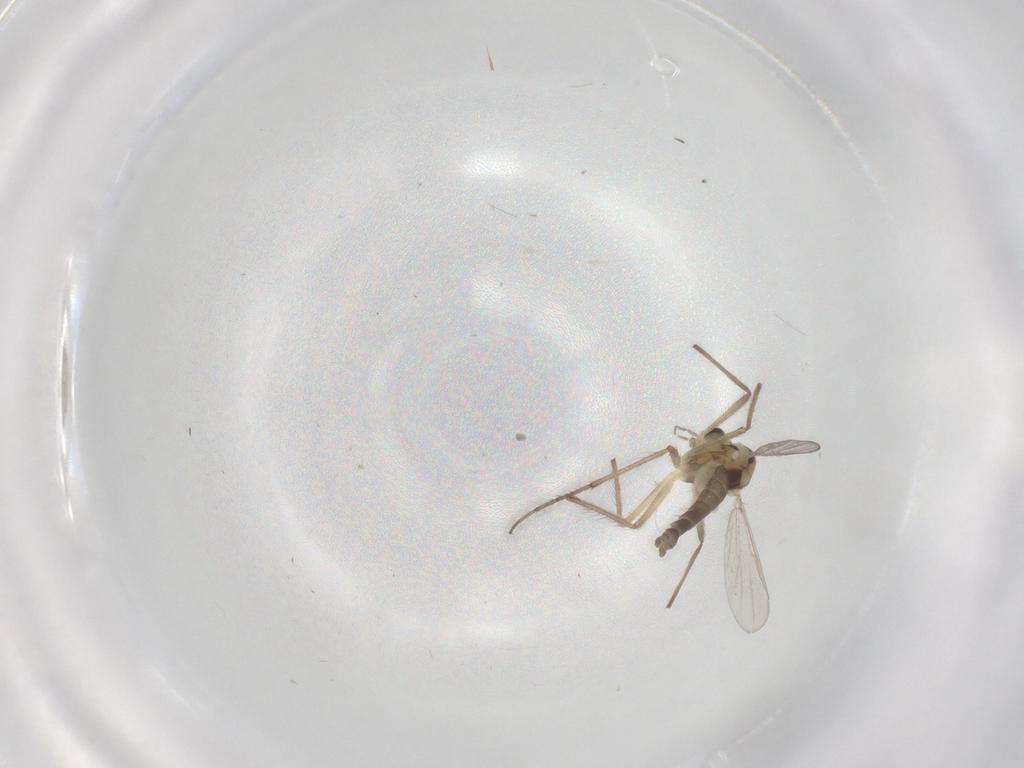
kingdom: Animalia
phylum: Arthropoda
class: Insecta
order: Diptera
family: Chironomidae
